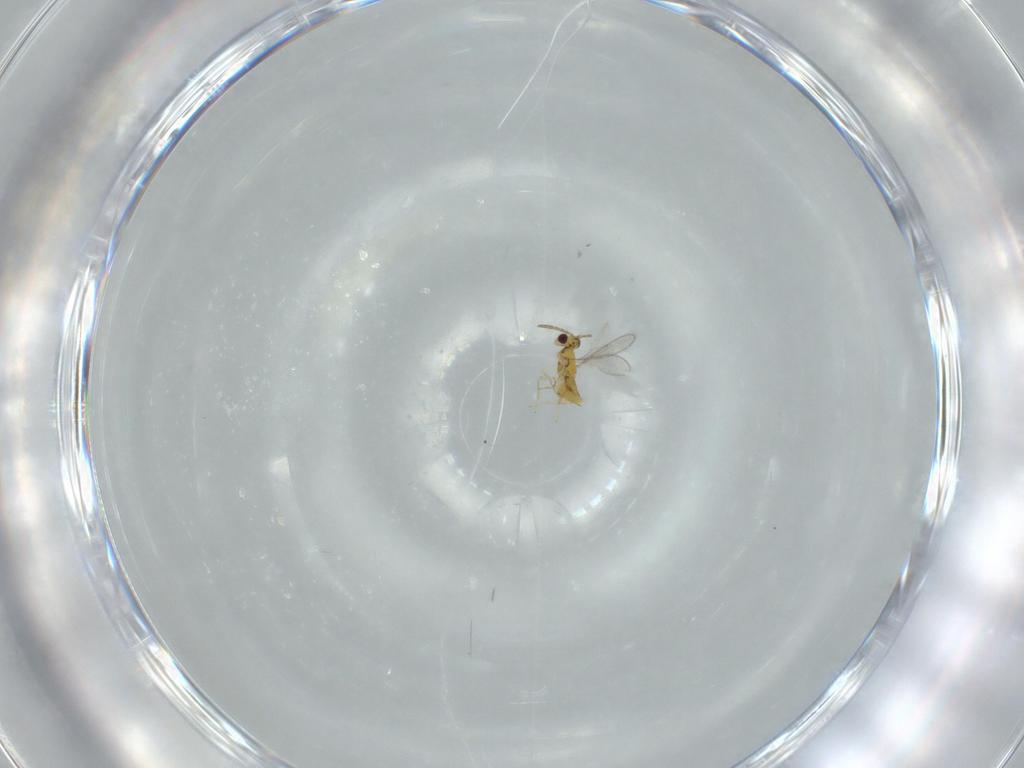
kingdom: Animalia
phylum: Arthropoda
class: Insecta
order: Hymenoptera
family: Aphelinidae
